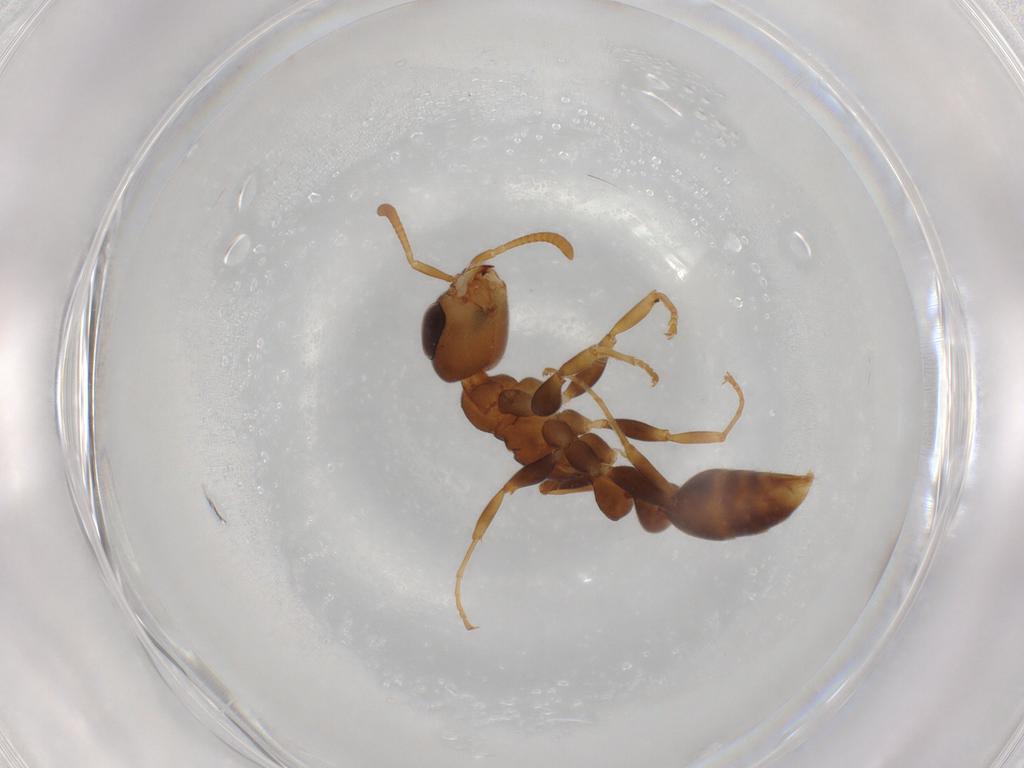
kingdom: Animalia
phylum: Arthropoda
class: Insecta
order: Hymenoptera
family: Formicidae
